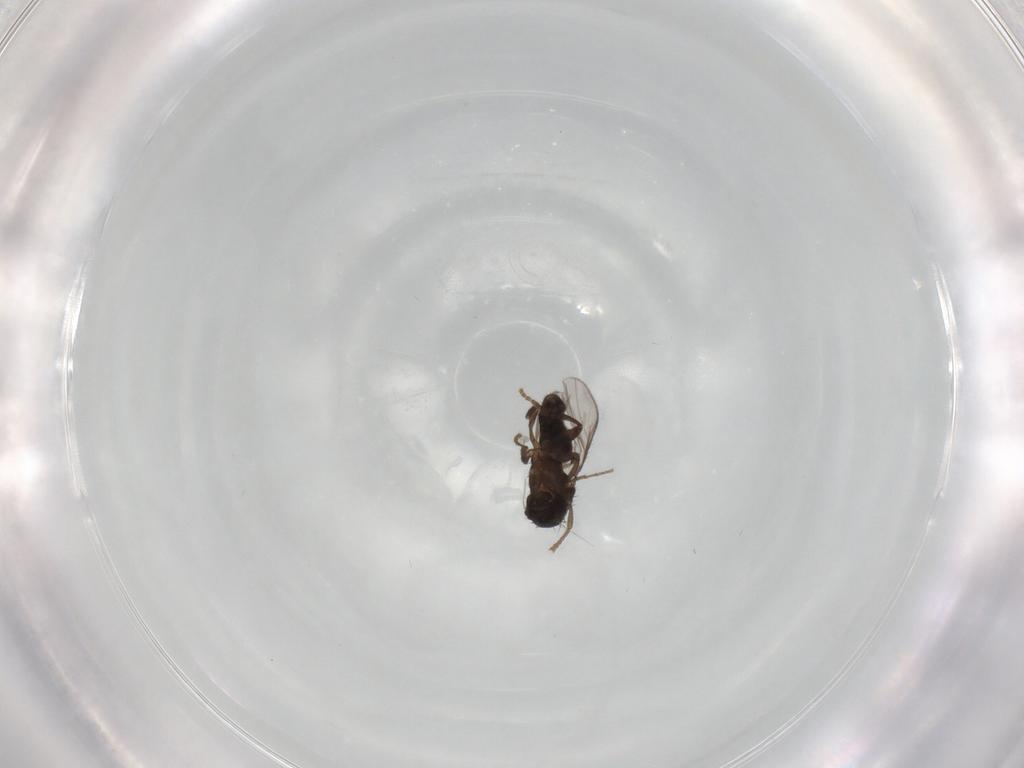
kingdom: Animalia
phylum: Arthropoda
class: Insecta
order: Diptera
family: Sphaeroceridae
